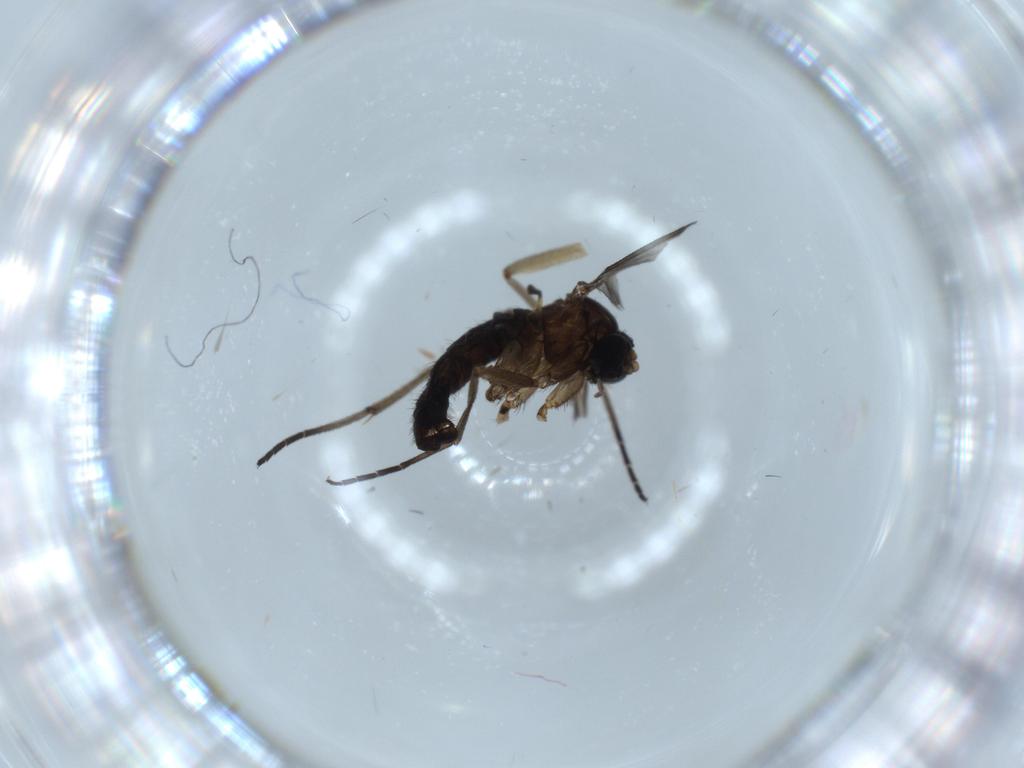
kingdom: Animalia
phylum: Arthropoda
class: Insecta
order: Diptera
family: Sciaridae
